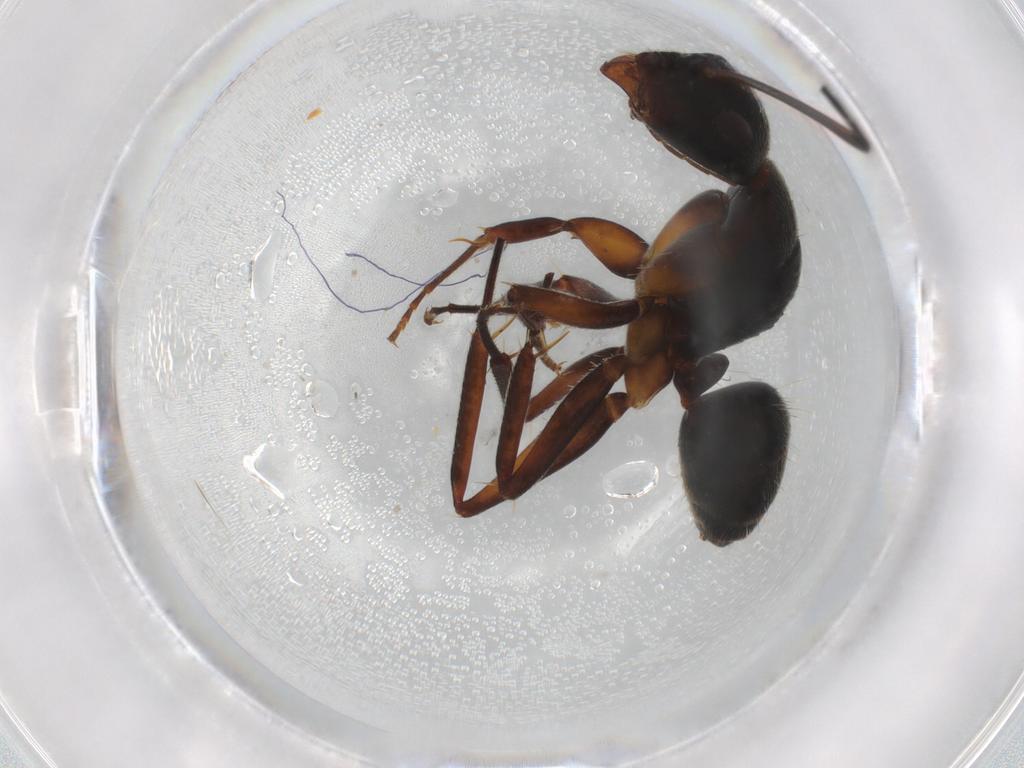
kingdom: Animalia
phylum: Arthropoda
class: Insecta
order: Hymenoptera
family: Formicidae
